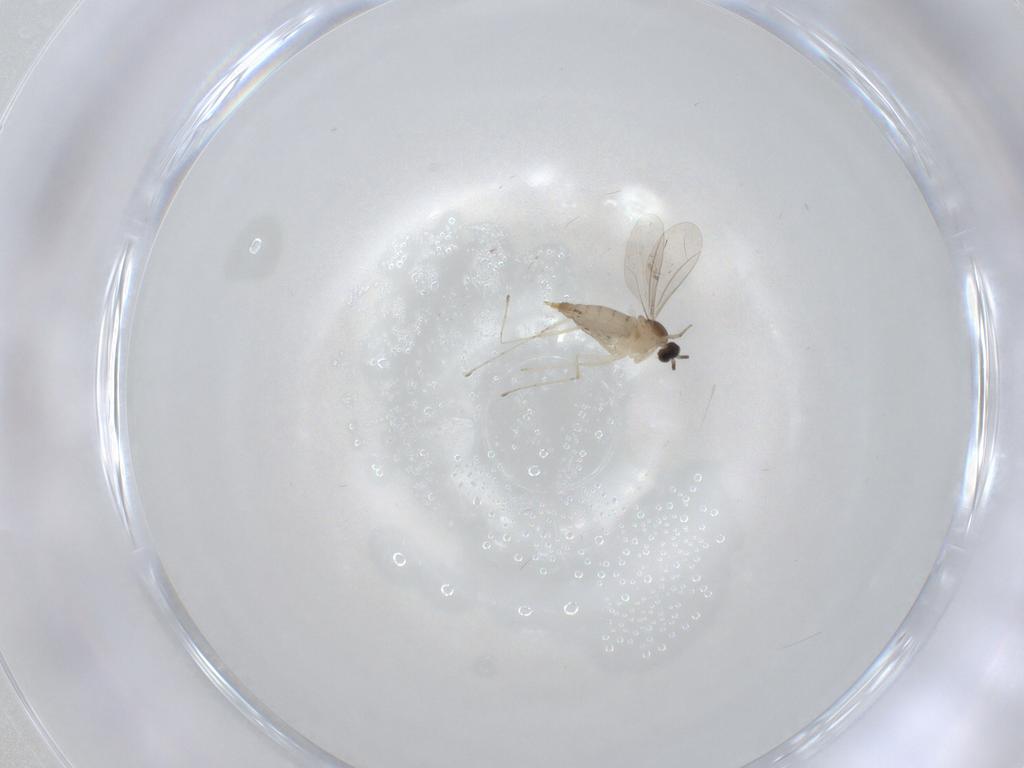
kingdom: Animalia
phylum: Arthropoda
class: Insecta
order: Diptera
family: Cecidomyiidae
